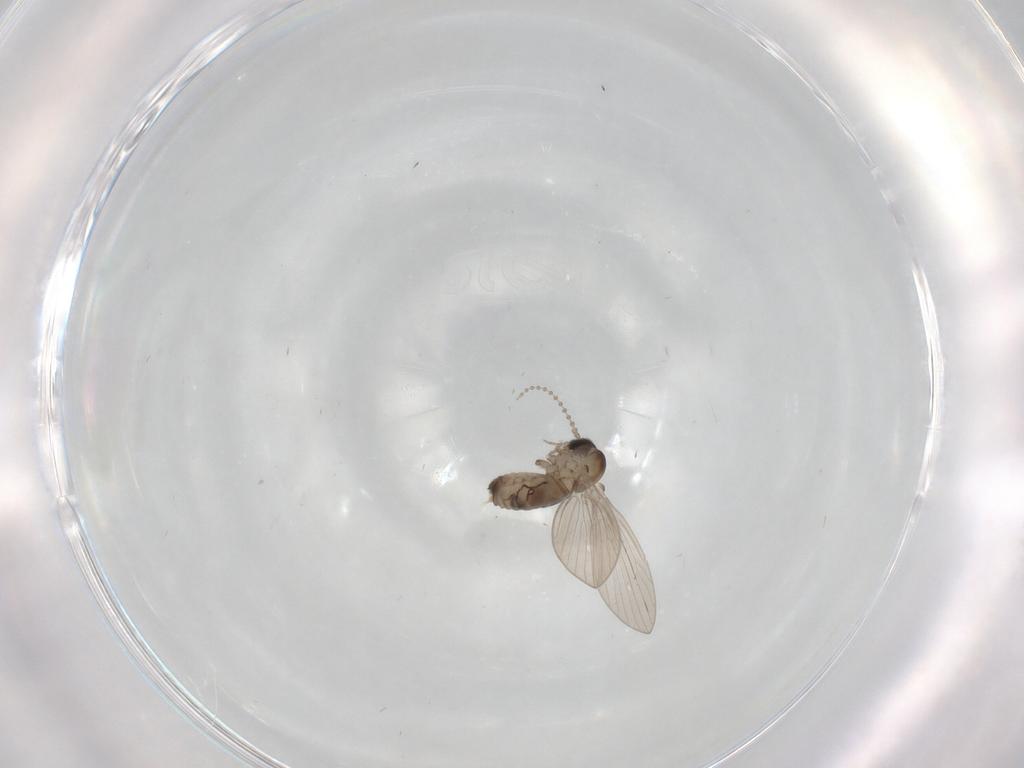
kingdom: Animalia
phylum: Arthropoda
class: Insecta
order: Diptera
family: Psychodidae
